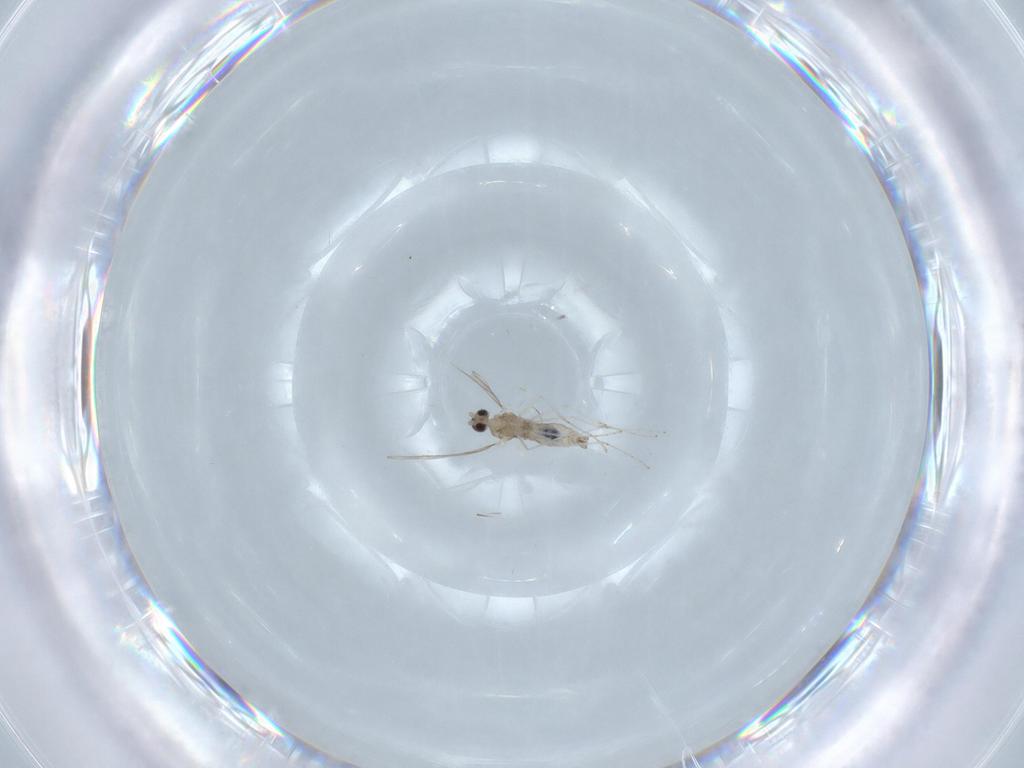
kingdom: Animalia
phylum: Arthropoda
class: Insecta
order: Diptera
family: Cecidomyiidae
